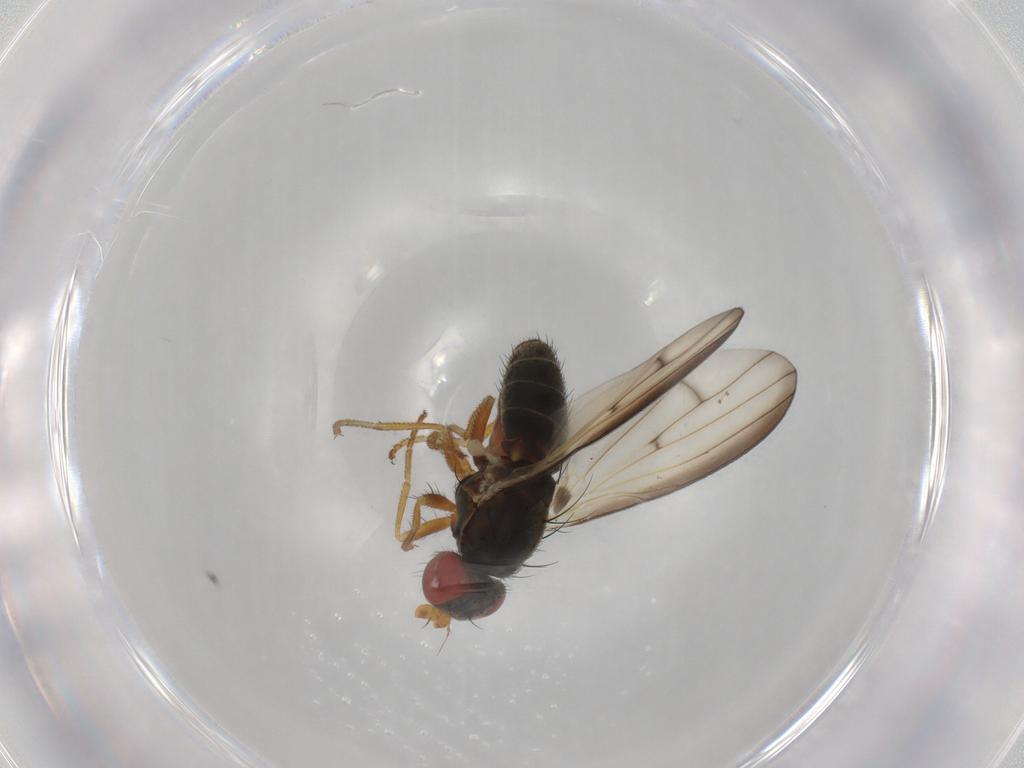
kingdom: Animalia
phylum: Arthropoda
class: Insecta
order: Diptera
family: Chamaemyiidae
